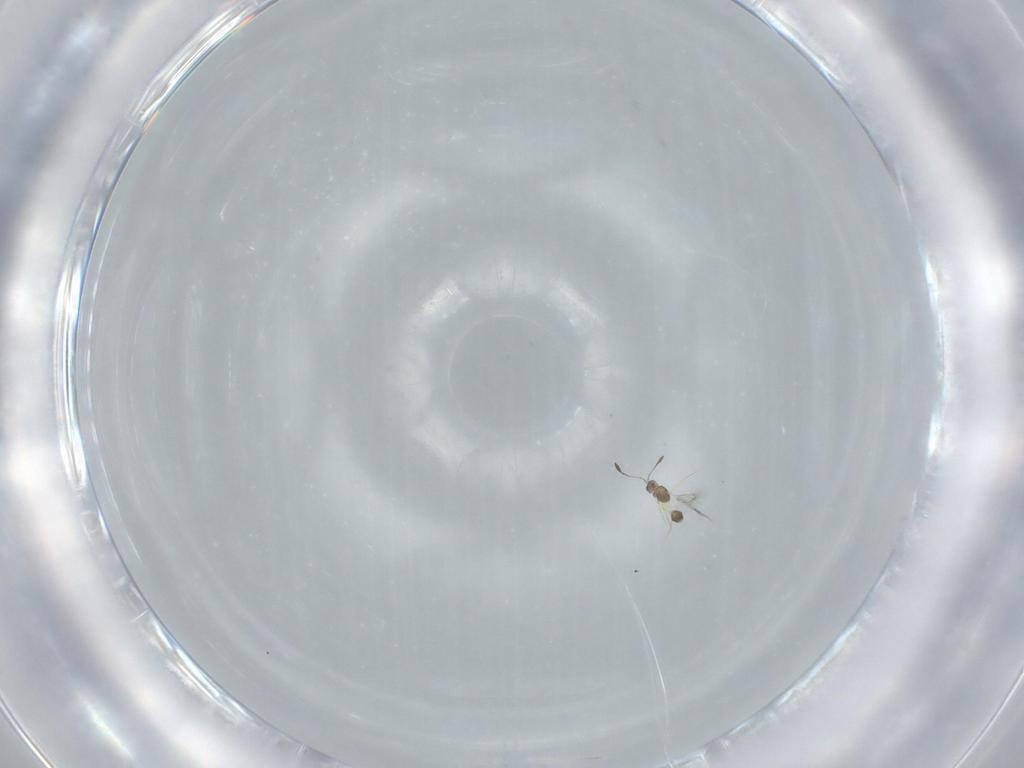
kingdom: Animalia
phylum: Arthropoda
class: Insecta
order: Hymenoptera
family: Mymarommatidae
